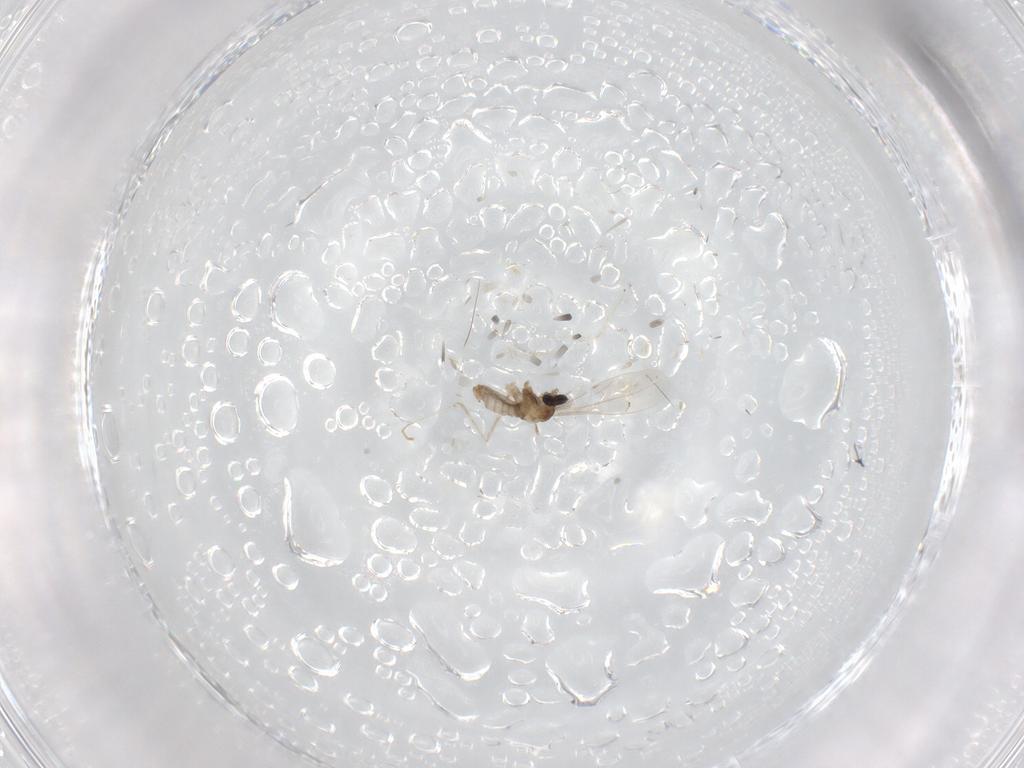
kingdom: Animalia
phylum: Arthropoda
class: Insecta
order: Diptera
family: Cecidomyiidae
